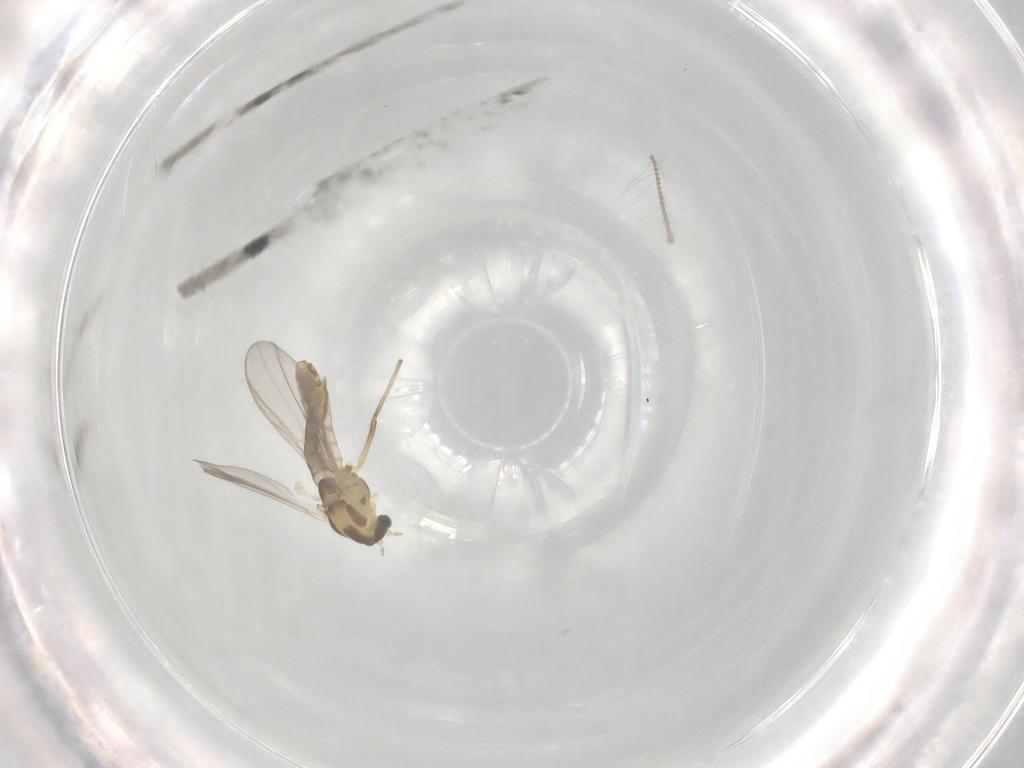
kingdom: Animalia
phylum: Arthropoda
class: Insecta
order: Diptera
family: Chironomidae
